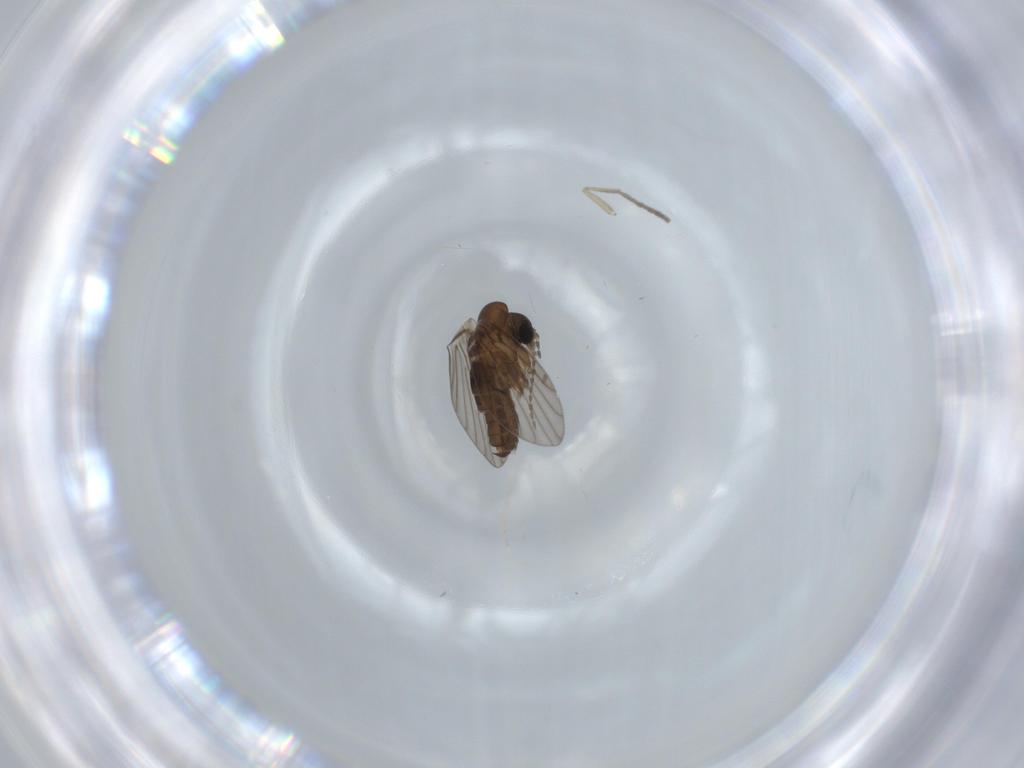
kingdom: Animalia
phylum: Arthropoda
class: Insecta
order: Diptera
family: Psychodidae
